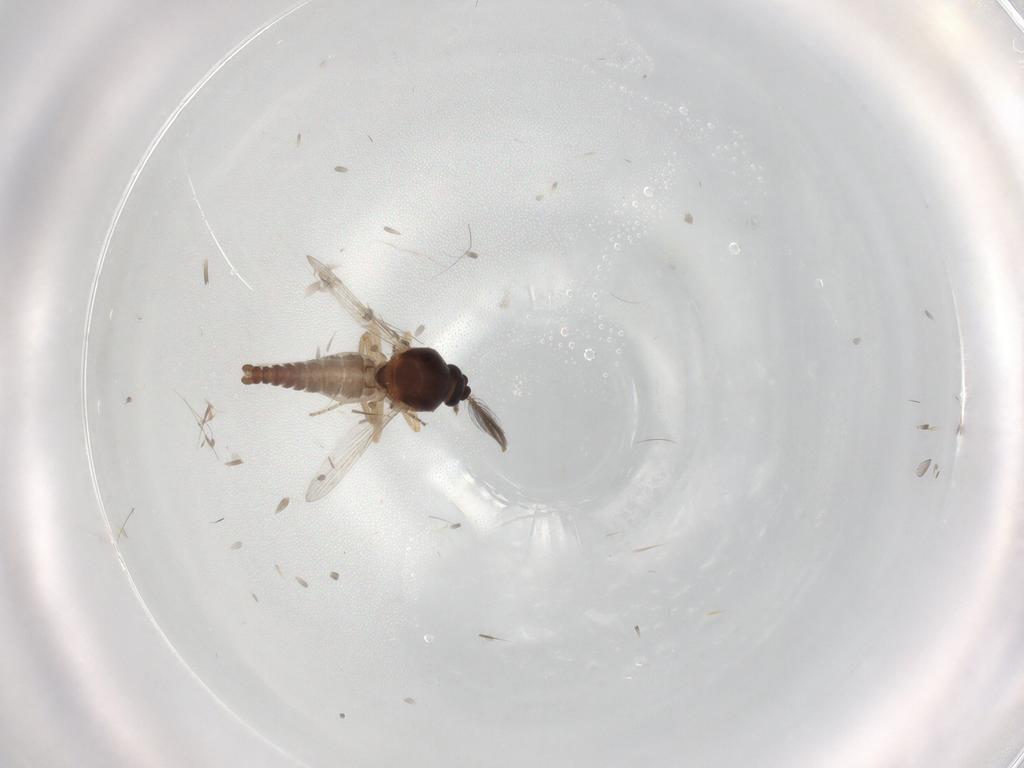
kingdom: Animalia
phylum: Arthropoda
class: Insecta
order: Diptera
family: Ceratopogonidae
